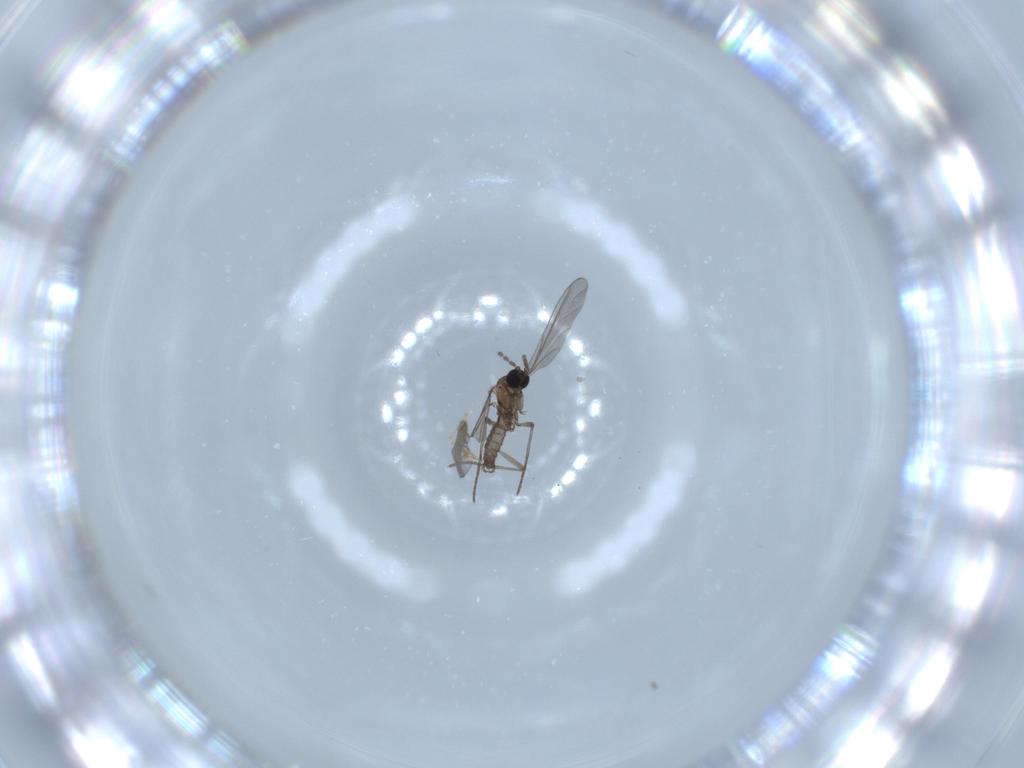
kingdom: Animalia
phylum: Arthropoda
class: Insecta
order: Diptera
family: Sciaridae
